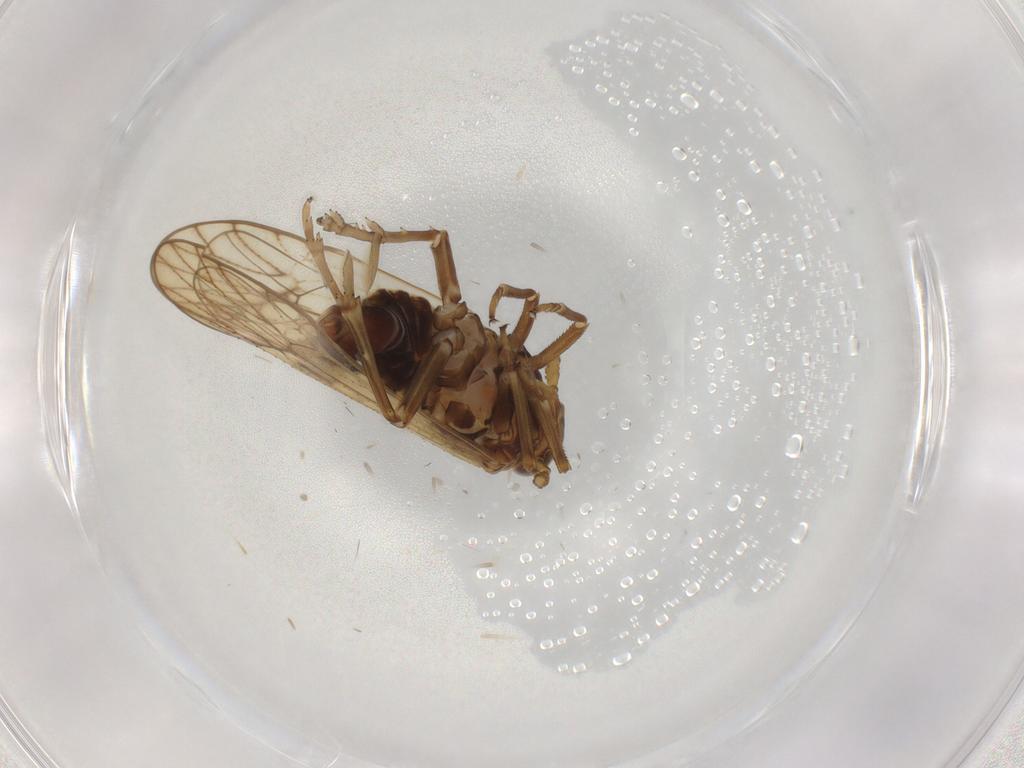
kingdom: Animalia
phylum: Arthropoda
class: Insecta
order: Hemiptera
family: Delphacidae
